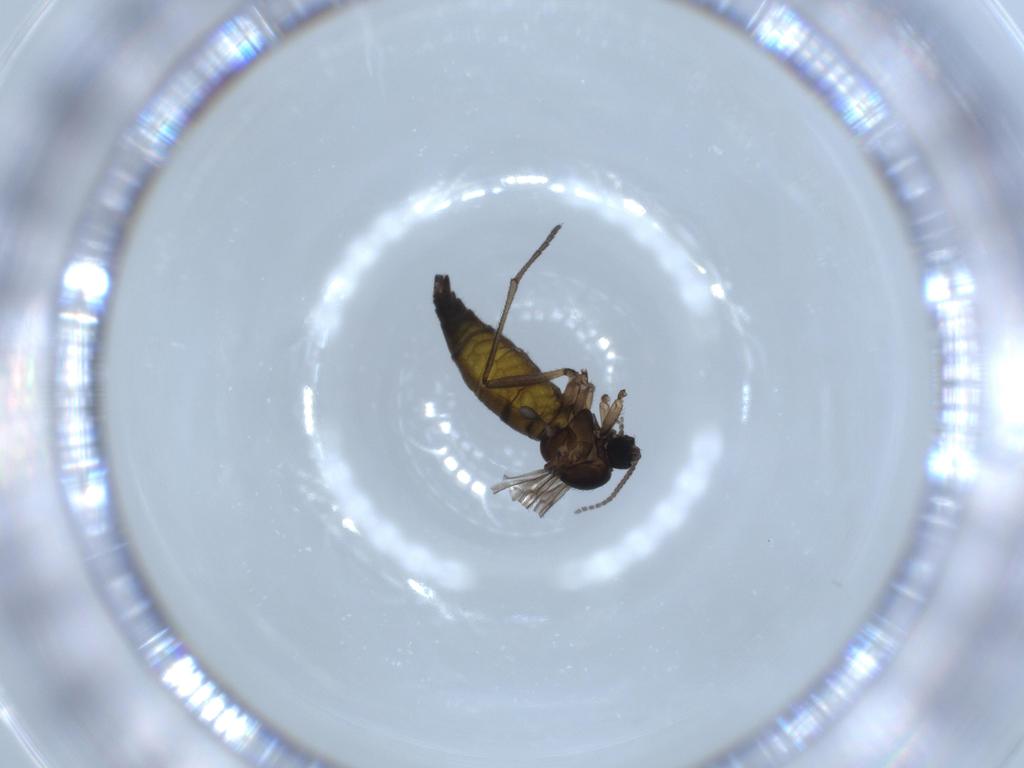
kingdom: Animalia
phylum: Arthropoda
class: Insecta
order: Diptera
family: Sciaridae
